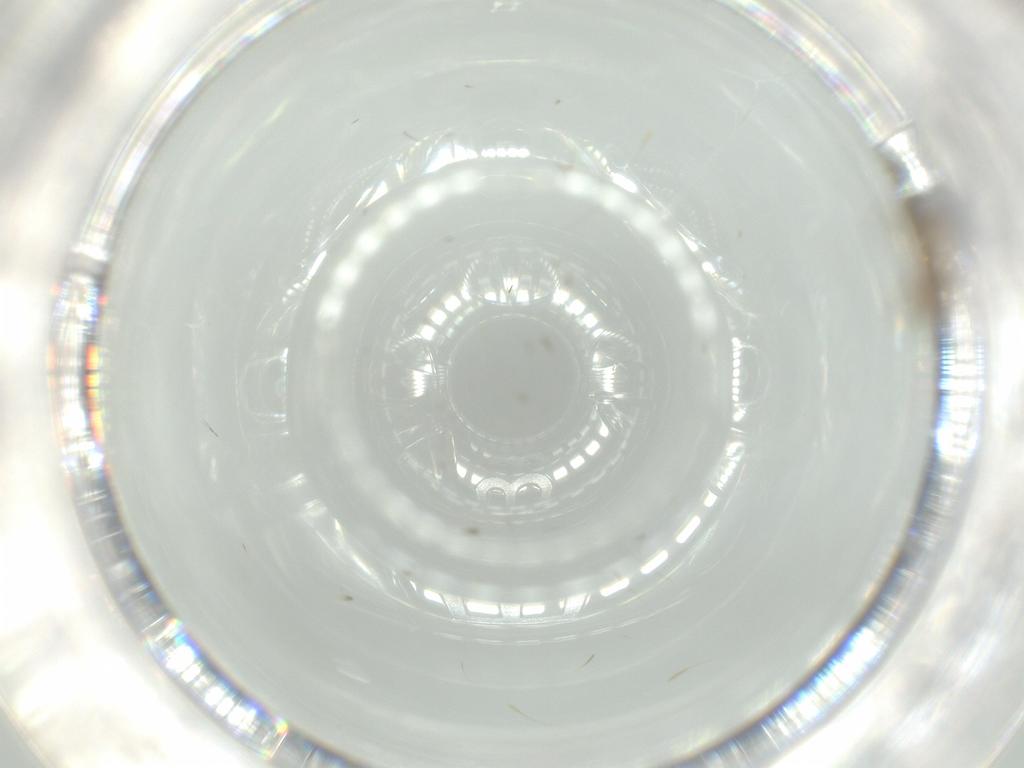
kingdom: Animalia
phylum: Arthropoda
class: Insecta
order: Diptera
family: Chironomidae
